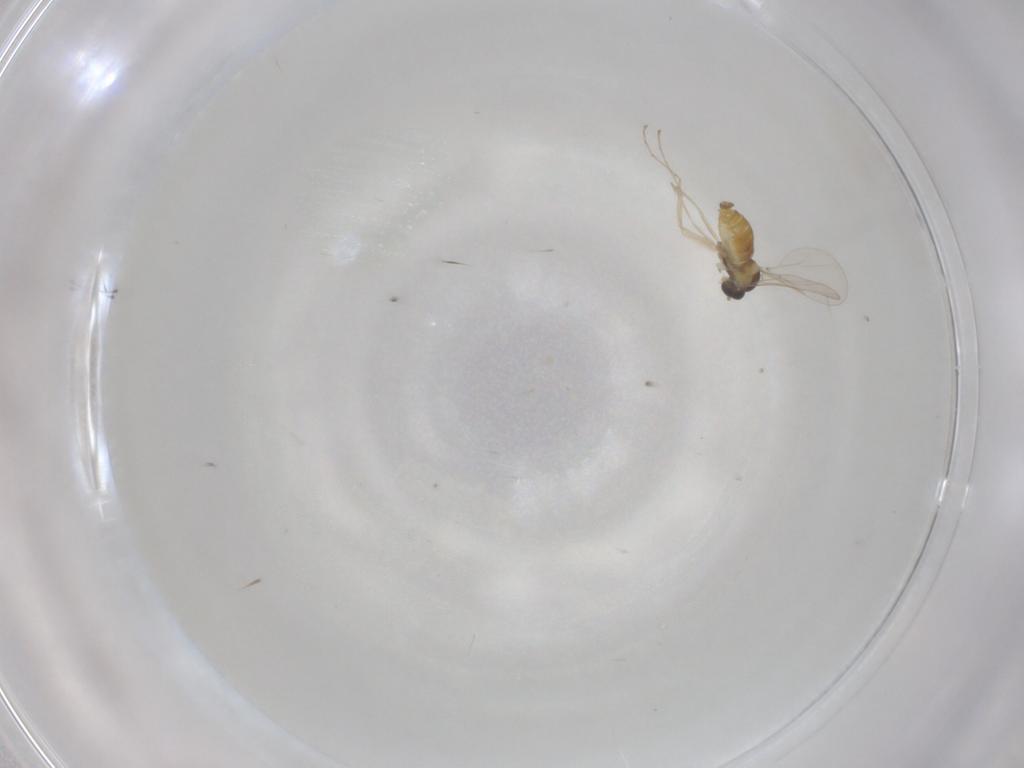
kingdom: Animalia
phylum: Arthropoda
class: Insecta
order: Diptera
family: Cecidomyiidae
